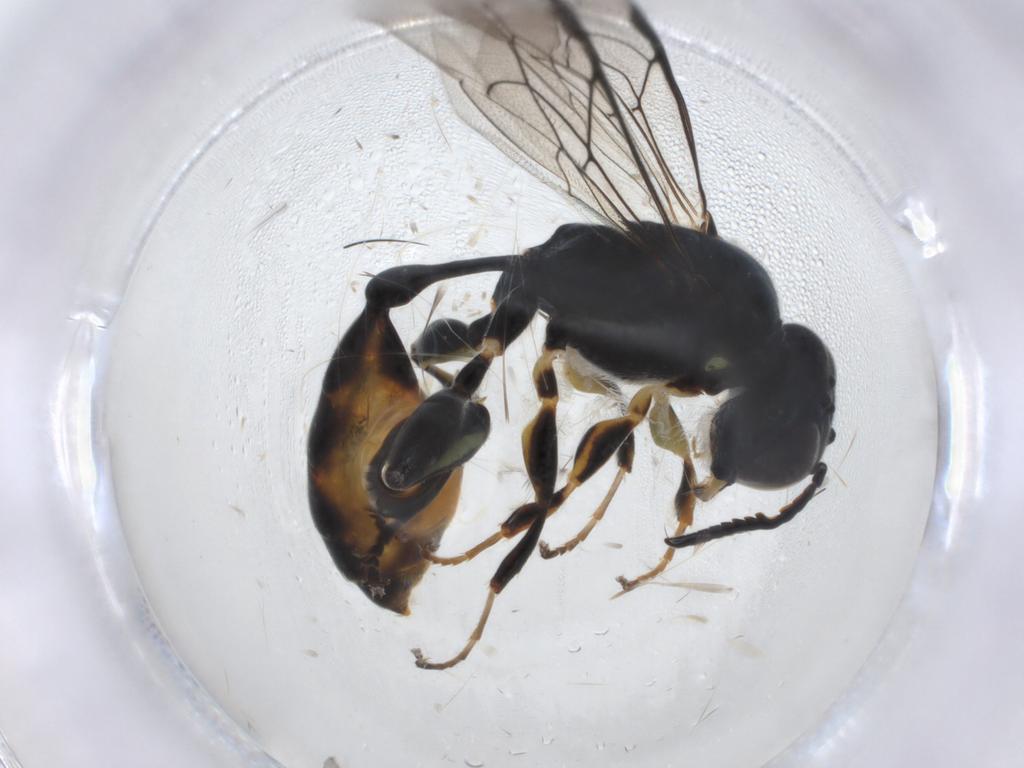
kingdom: Animalia
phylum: Arthropoda
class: Insecta
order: Hymenoptera
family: Crabronidae
